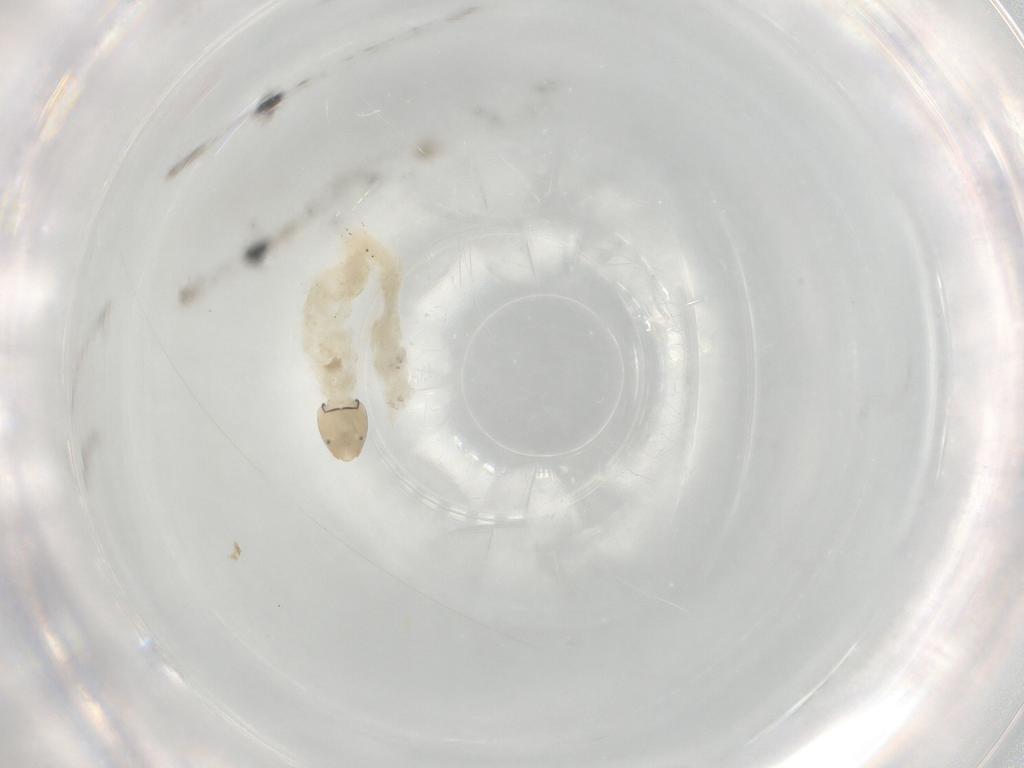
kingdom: Animalia
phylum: Arthropoda
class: Insecta
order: Diptera
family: Chironomidae
